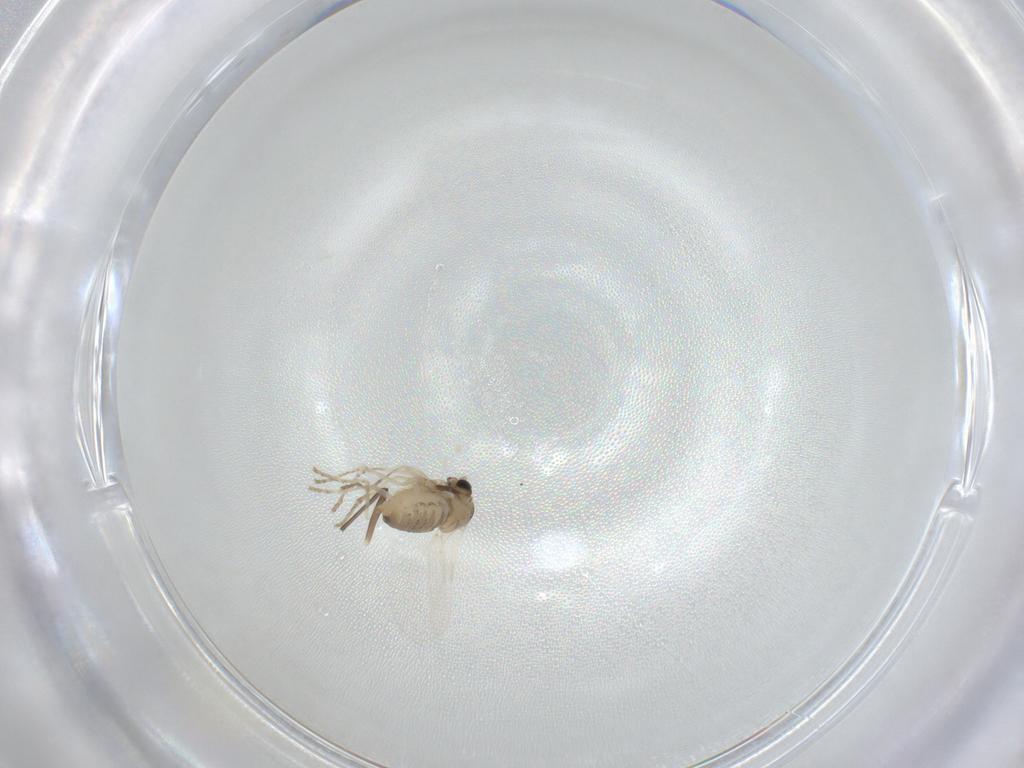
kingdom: Animalia
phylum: Arthropoda
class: Insecta
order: Diptera
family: Cecidomyiidae
